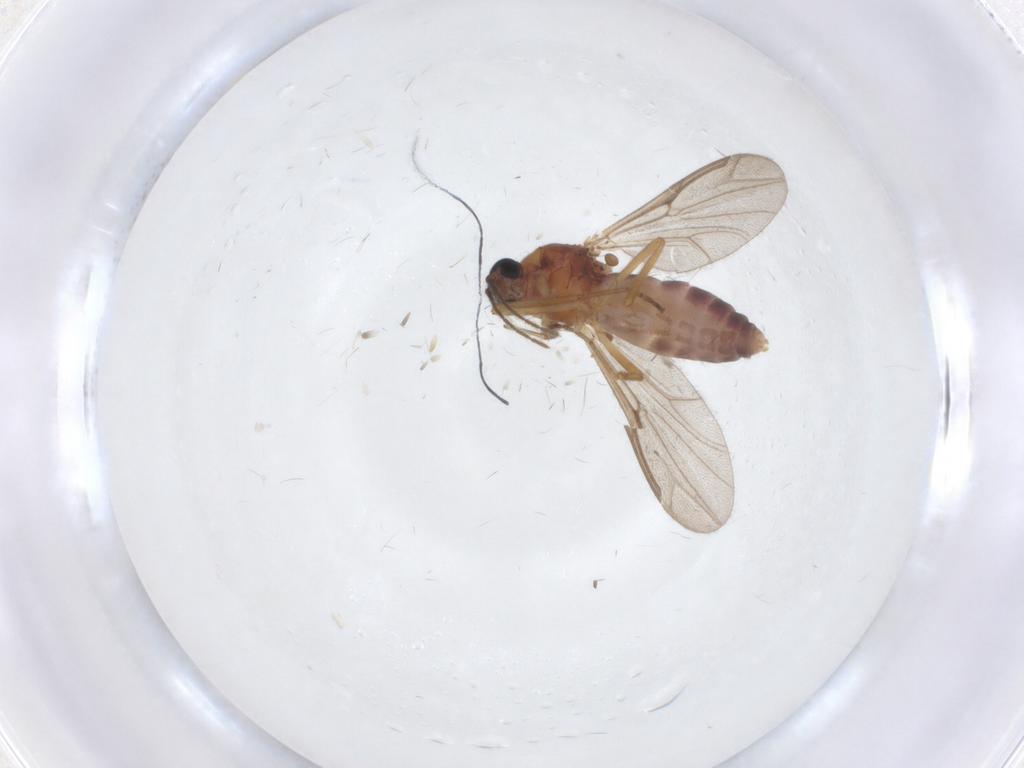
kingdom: Animalia
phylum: Arthropoda
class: Insecta
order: Diptera
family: Ceratopogonidae
